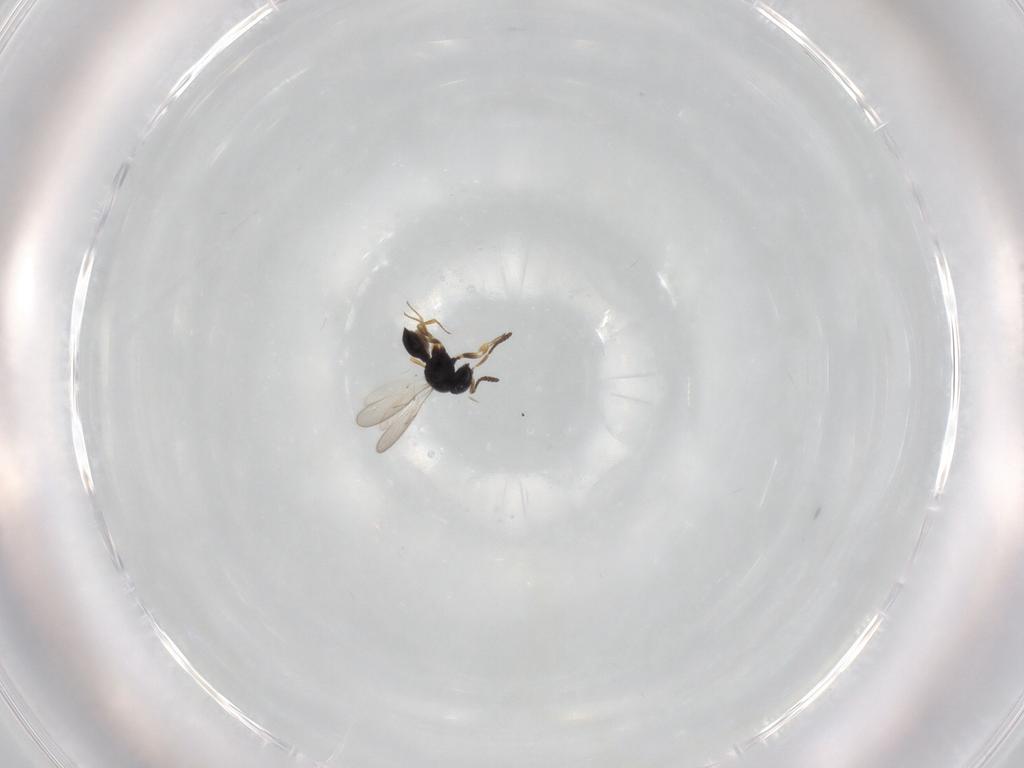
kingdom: Animalia
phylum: Arthropoda
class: Insecta
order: Hymenoptera
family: Scelionidae
